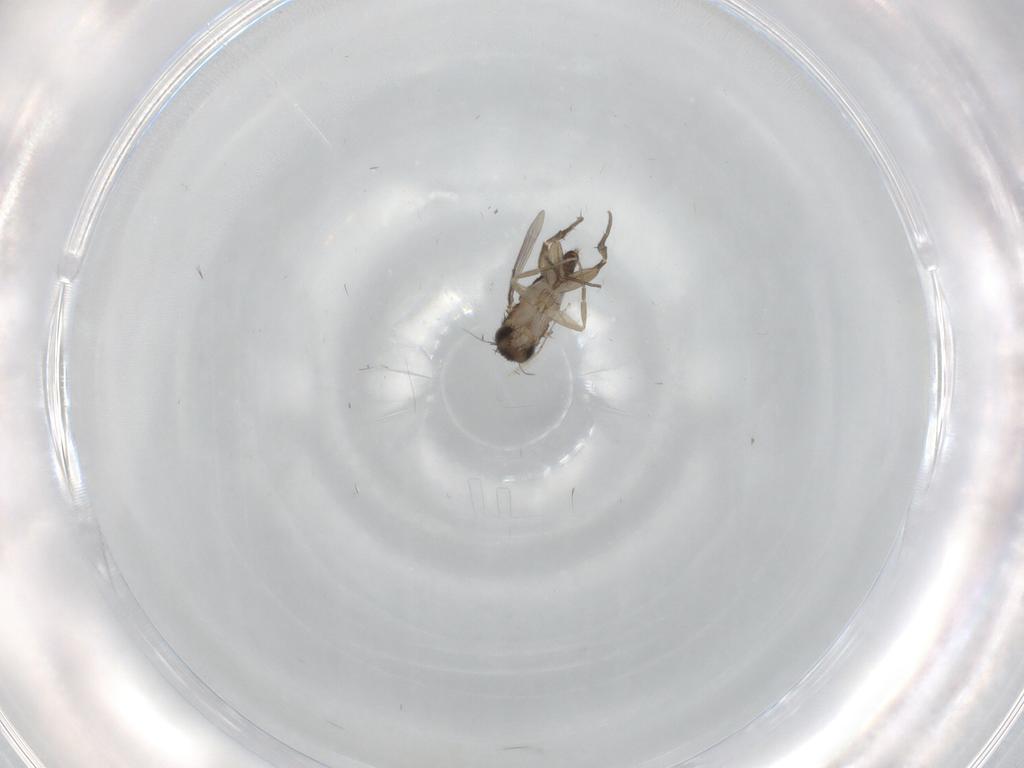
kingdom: Animalia
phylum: Arthropoda
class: Insecta
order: Diptera
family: Phoridae
